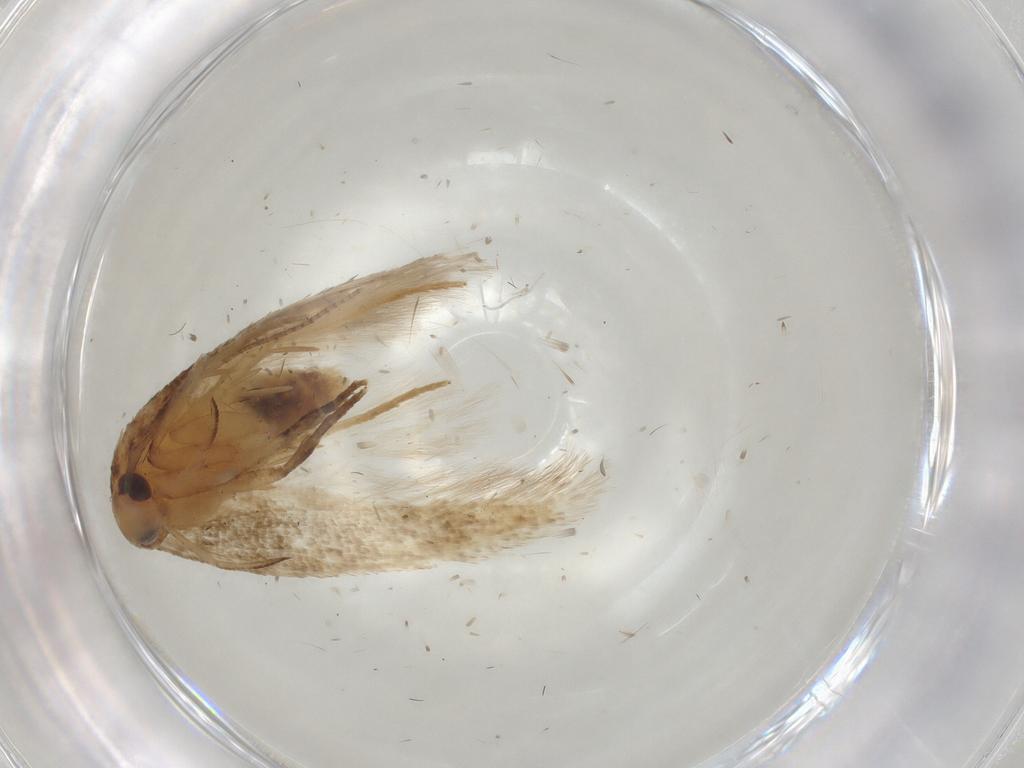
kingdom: Animalia
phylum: Arthropoda
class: Insecta
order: Lepidoptera
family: Cosmopterigidae
